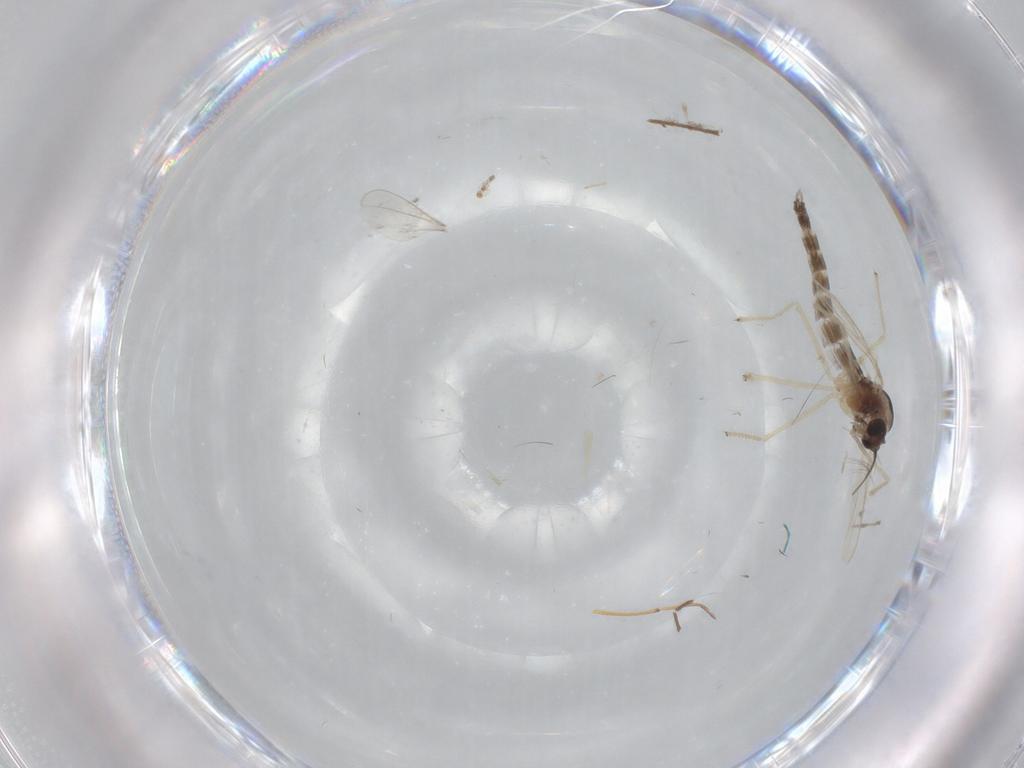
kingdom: Animalia
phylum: Arthropoda
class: Insecta
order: Diptera
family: Chironomidae
